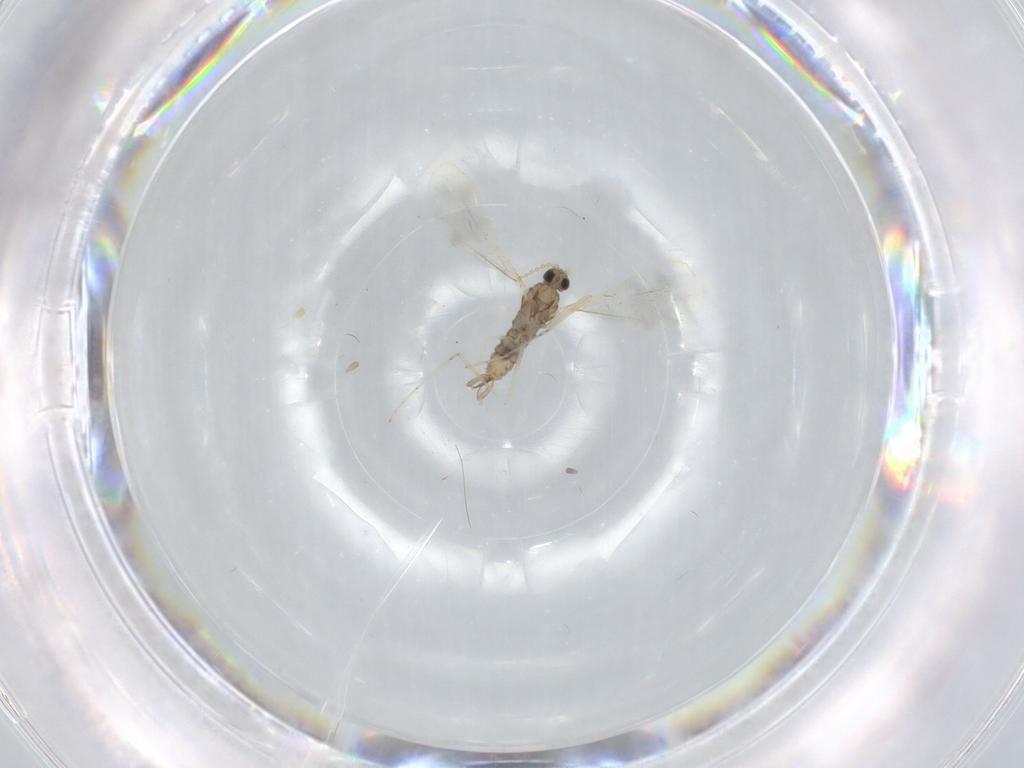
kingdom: Animalia
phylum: Arthropoda
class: Insecta
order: Diptera
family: Cecidomyiidae
